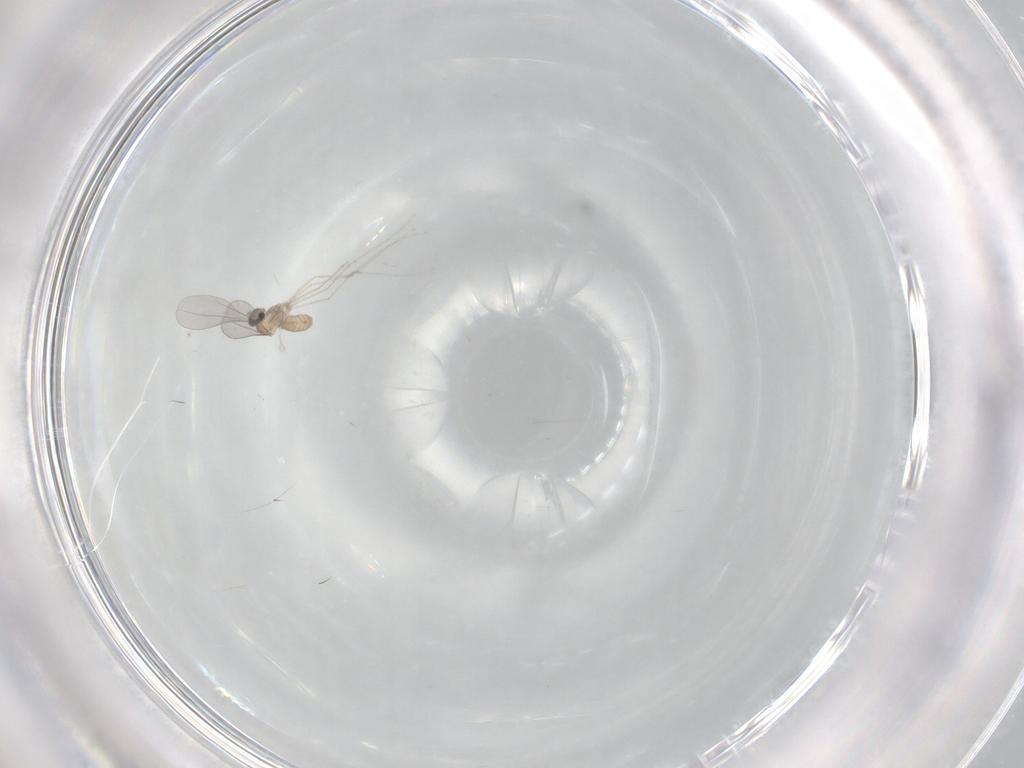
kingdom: Animalia
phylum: Arthropoda
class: Insecta
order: Diptera
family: Cecidomyiidae
